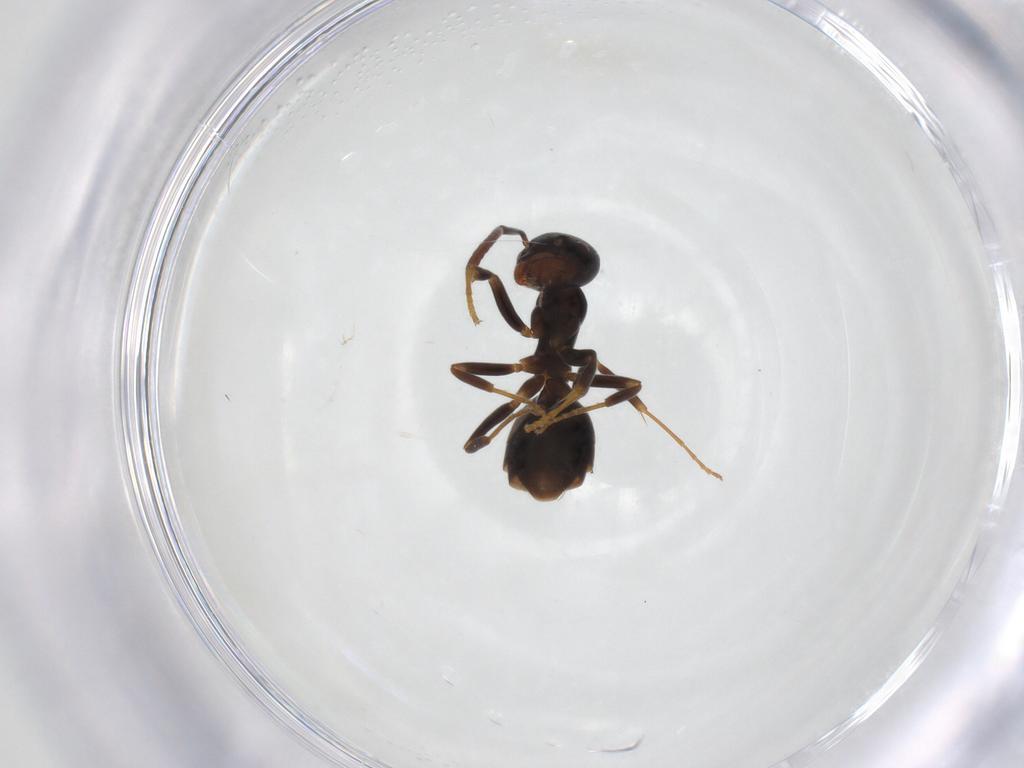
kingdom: Animalia
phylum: Arthropoda
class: Insecta
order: Hymenoptera
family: Formicidae
